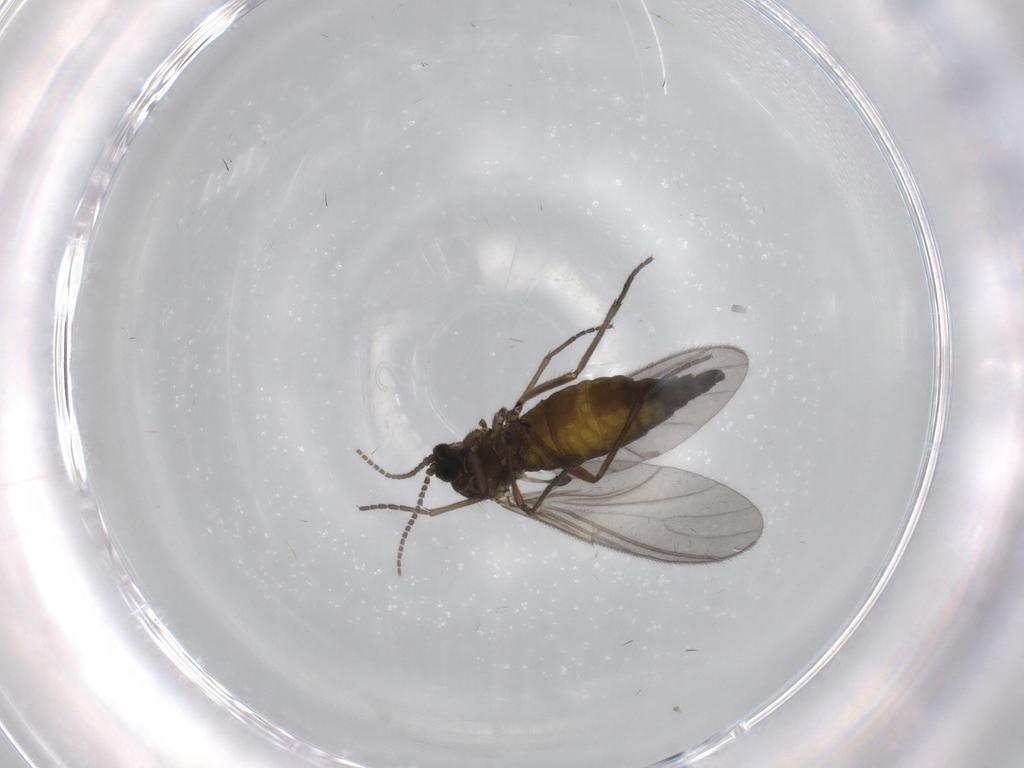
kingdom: Animalia
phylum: Arthropoda
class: Insecta
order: Diptera
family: Sciaridae
